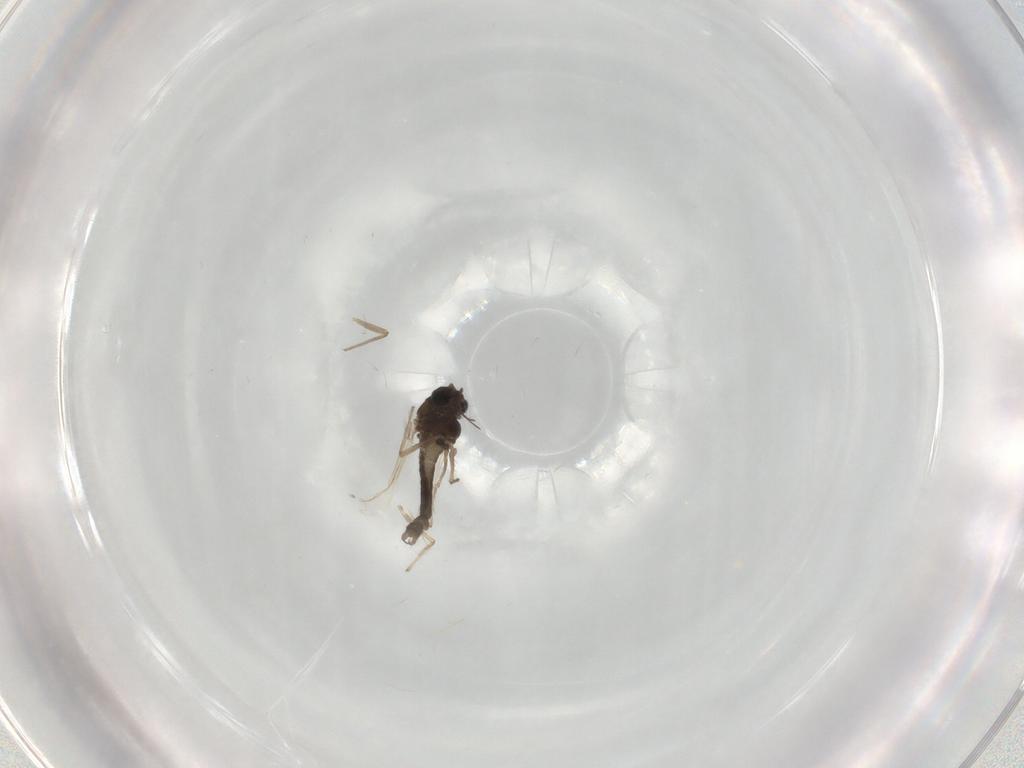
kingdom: Animalia
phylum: Arthropoda
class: Insecta
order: Diptera
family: Chironomidae
